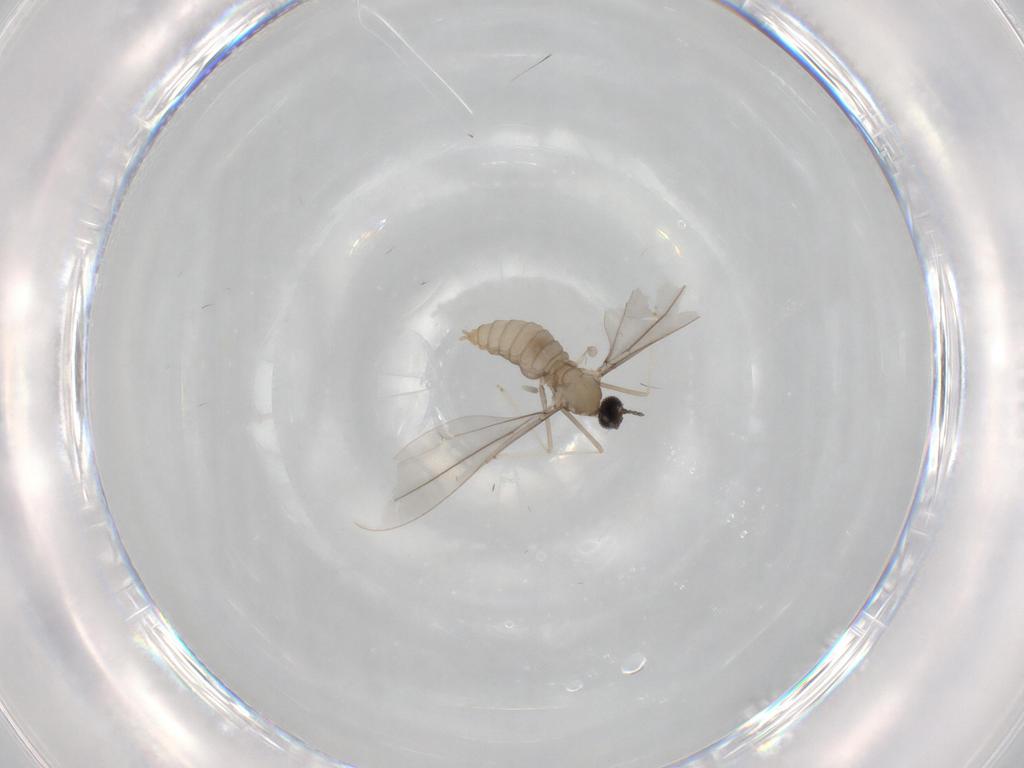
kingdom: Animalia
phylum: Arthropoda
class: Insecta
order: Diptera
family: Cecidomyiidae
